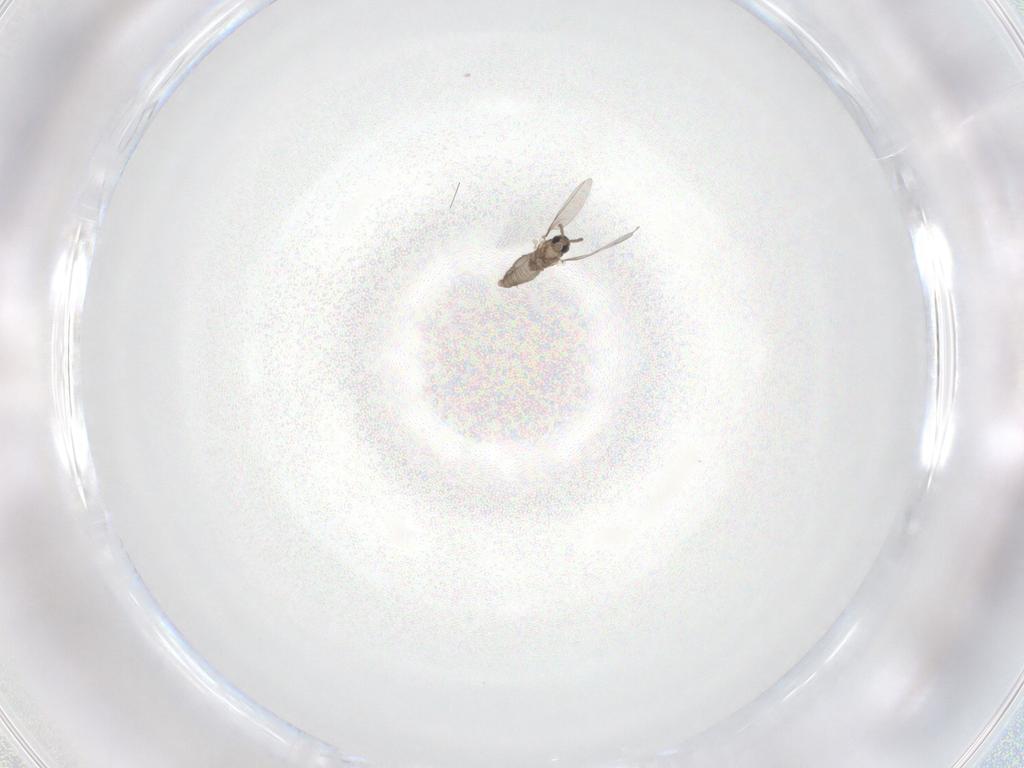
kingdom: Animalia
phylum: Arthropoda
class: Insecta
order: Diptera
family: Cecidomyiidae
